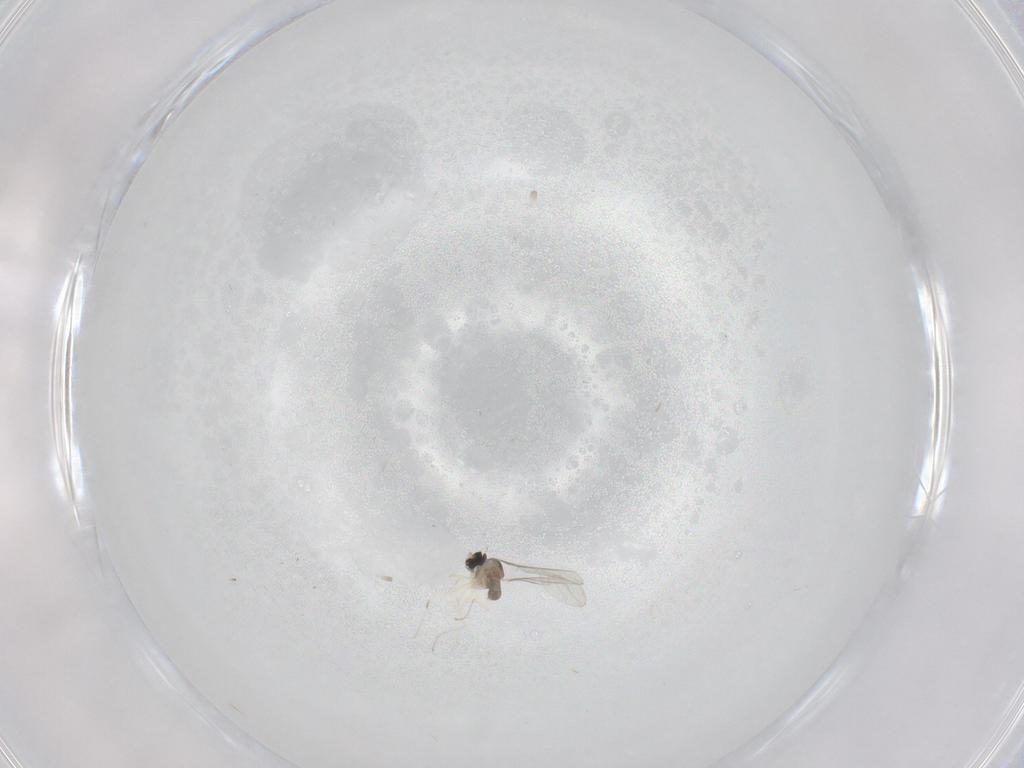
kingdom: Animalia
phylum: Arthropoda
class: Insecta
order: Diptera
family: Cecidomyiidae
